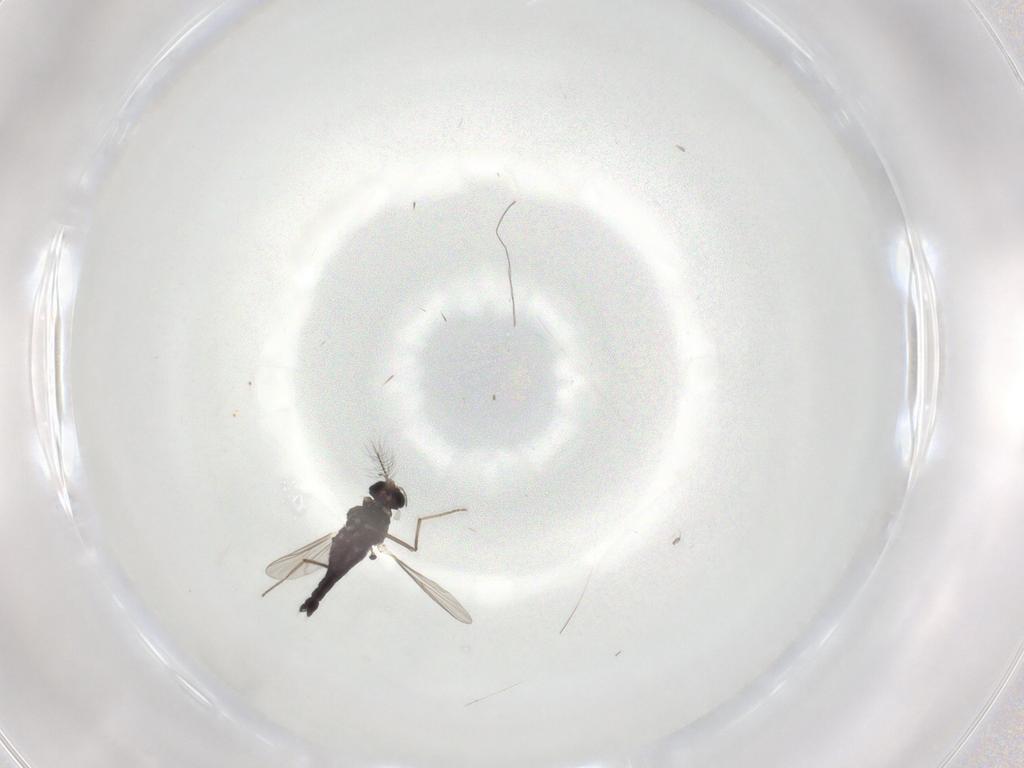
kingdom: Animalia
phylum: Arthropoda
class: Insecta
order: Diptera
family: Chironomidae
